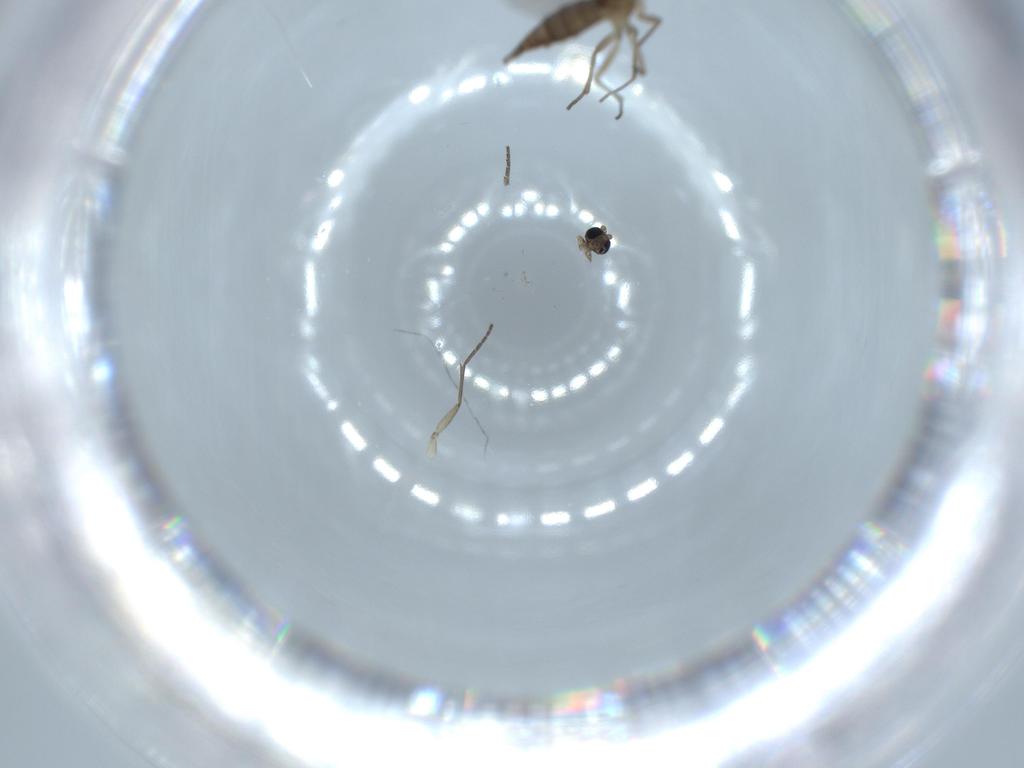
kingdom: Animalia
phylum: Arthropoda
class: Insecta
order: Diptera
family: Sciaridae
